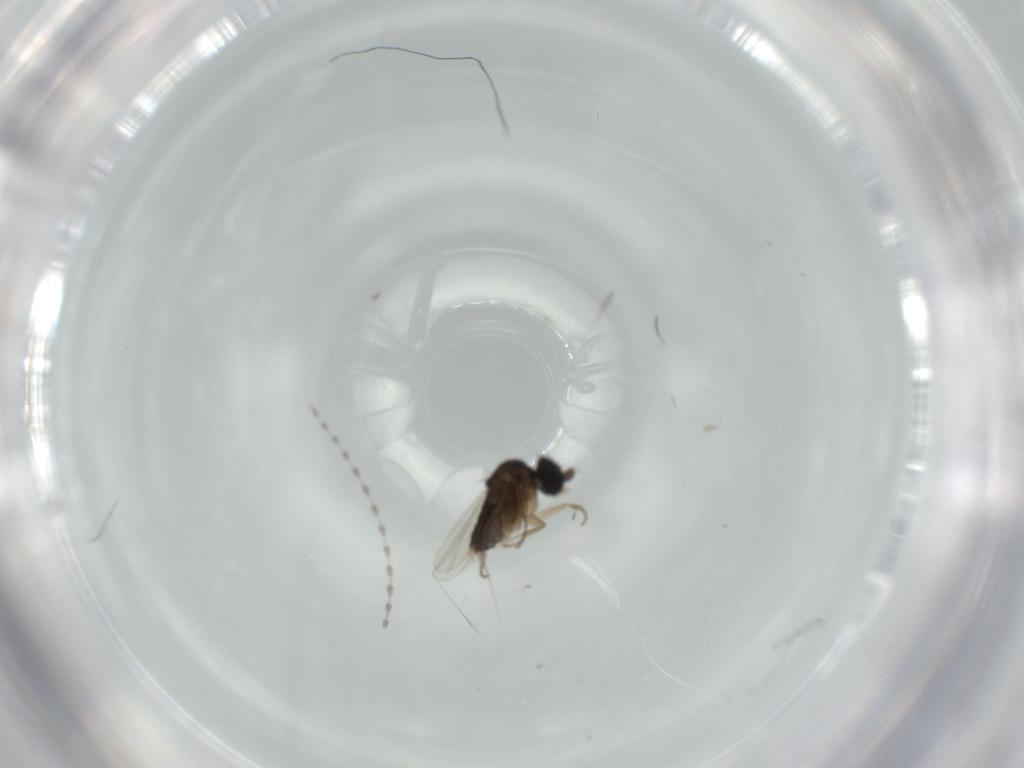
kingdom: Animalia
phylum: Arthropoda
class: Insecta
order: Diptera
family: Cecidomyiidae
